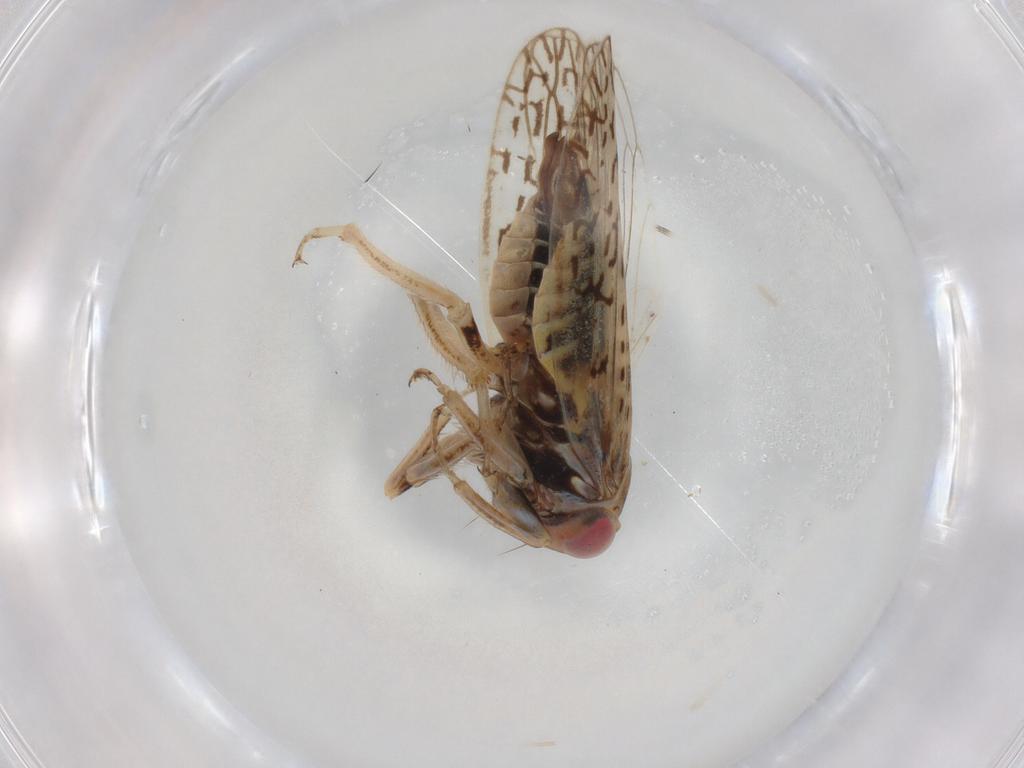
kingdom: Animalia
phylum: Arthropoda
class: Insecta
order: Hemiptera
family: Cicadellidae
